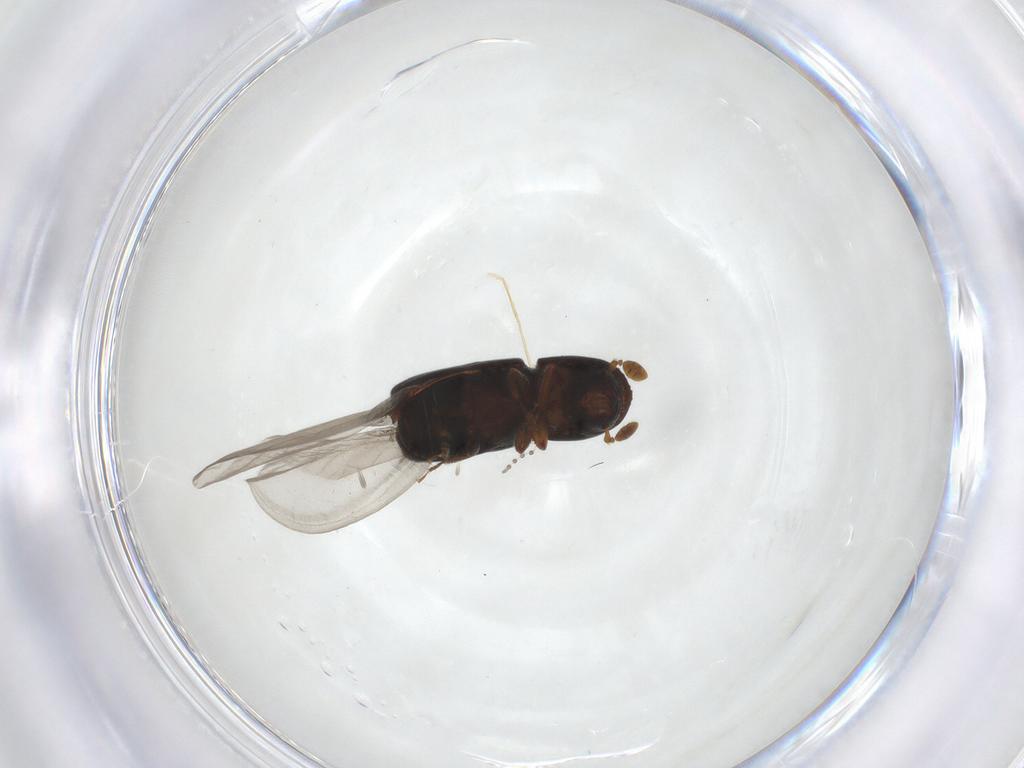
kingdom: Animalia
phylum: Arthropoda
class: Insecta
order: Coleoptera
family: Curculionidae
